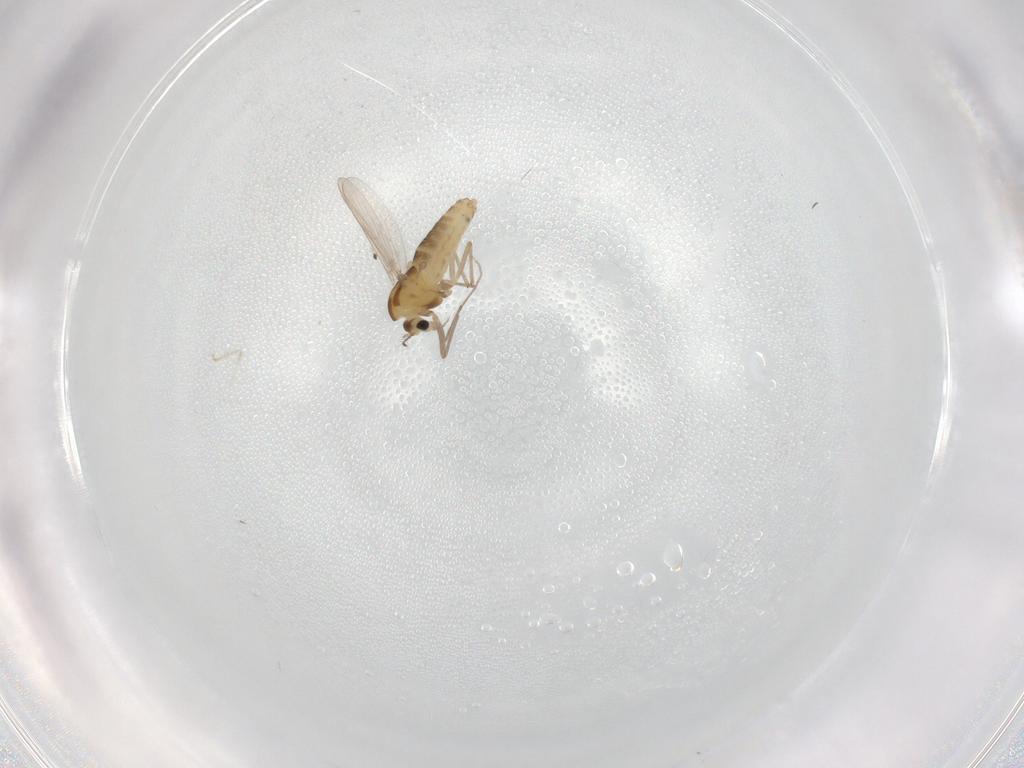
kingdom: Animalia
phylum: Arthropoda
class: Insecta
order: Diptera
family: Chironomidae
